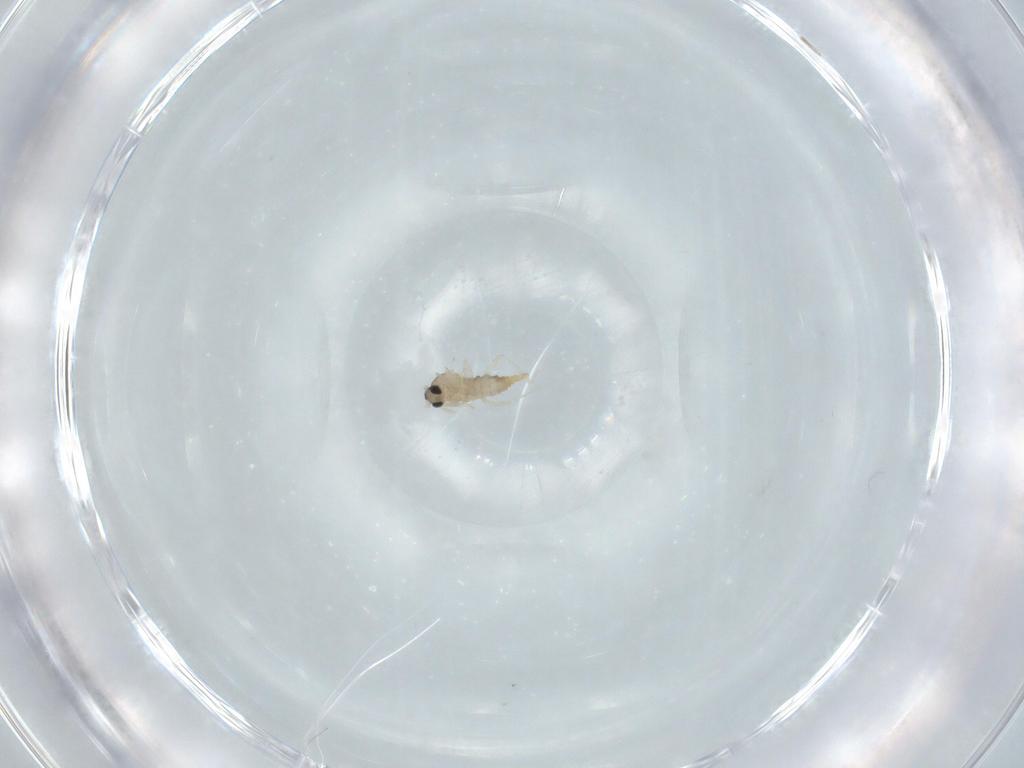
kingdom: Animalia
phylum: Arthropoda
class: Insecta
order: Diptera
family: Cecidomyiidae
